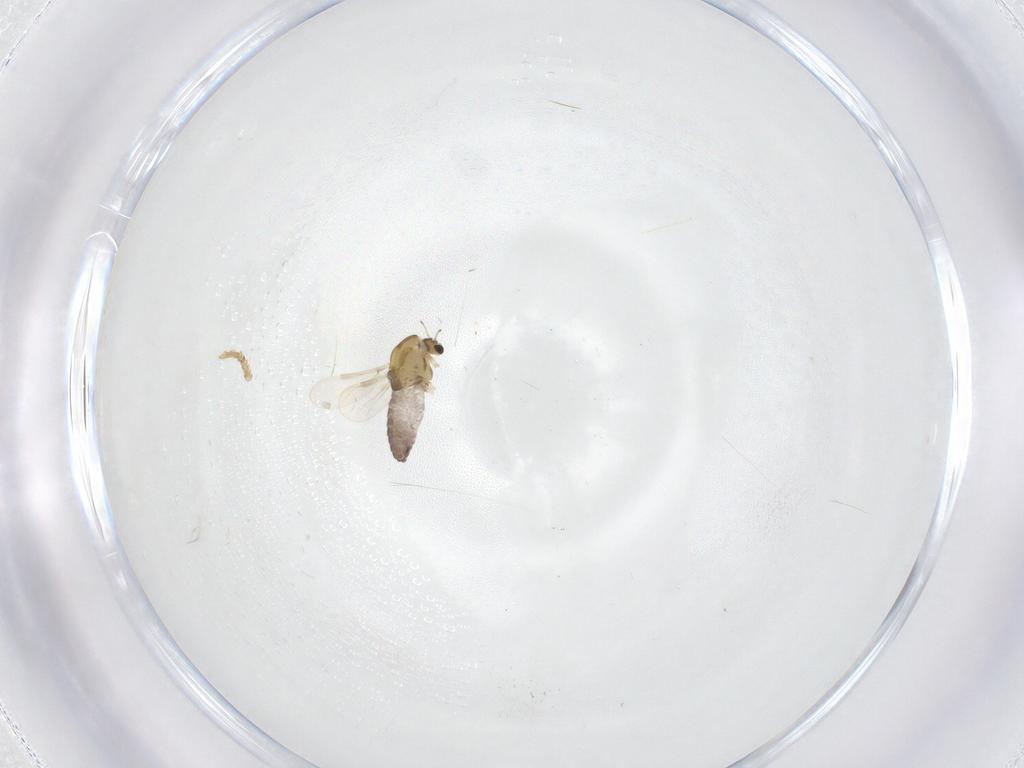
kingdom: Animalia
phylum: Arthropoda
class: Insecta
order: Diptera
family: Chironomidae
